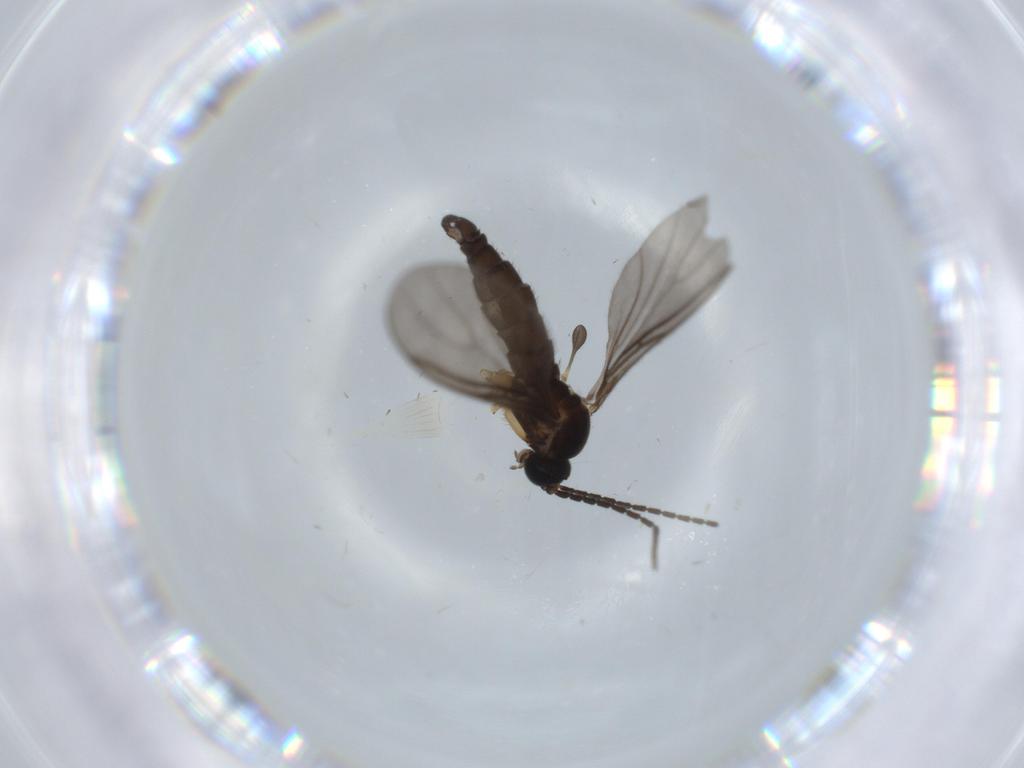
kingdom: Animalia
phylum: Arthropoda
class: Insecta
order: Diptera
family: Sciaridae
